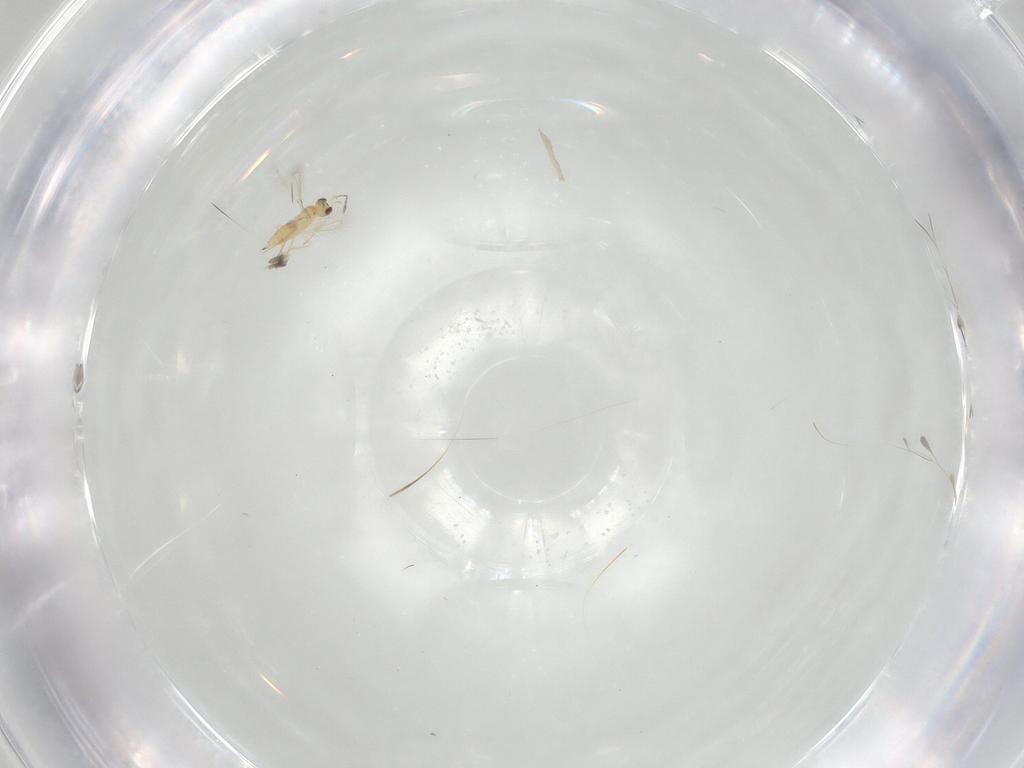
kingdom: Animalia
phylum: Arthropoda
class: Insecta
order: Hymenoptera
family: Mymaridae
